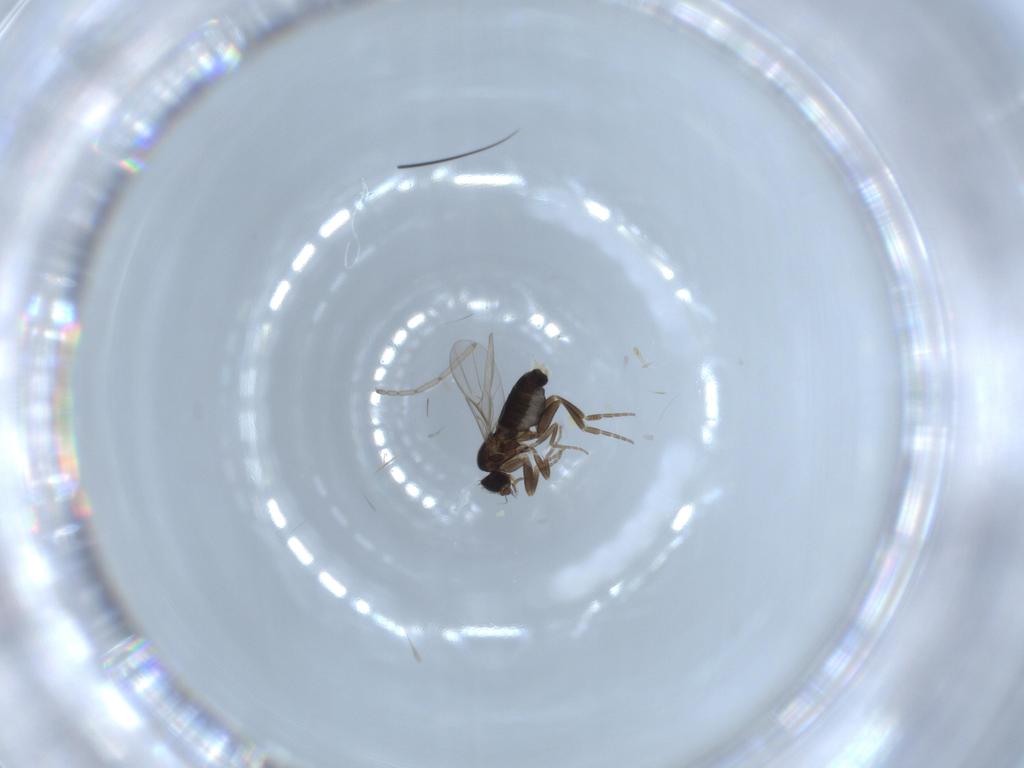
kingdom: Animalia
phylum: Arthropoda
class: Insecta
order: Diptera
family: Phoridae
